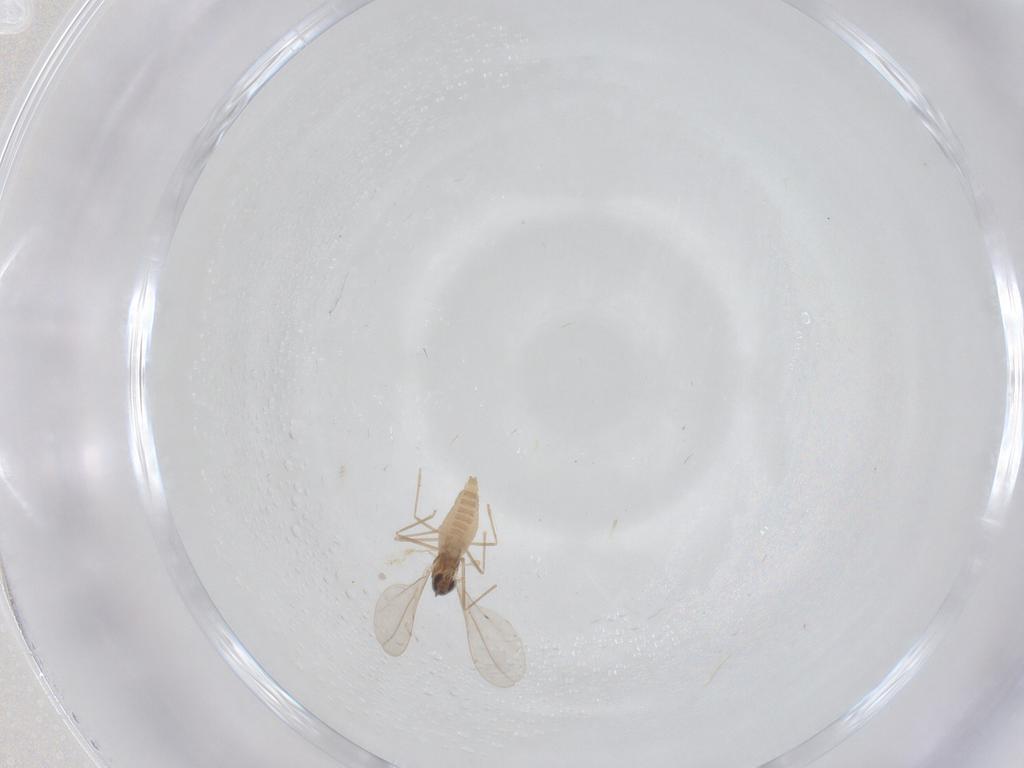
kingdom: Animalia
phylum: Arthropoda
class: Insecta
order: Diptera
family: Cecidomyiidae
